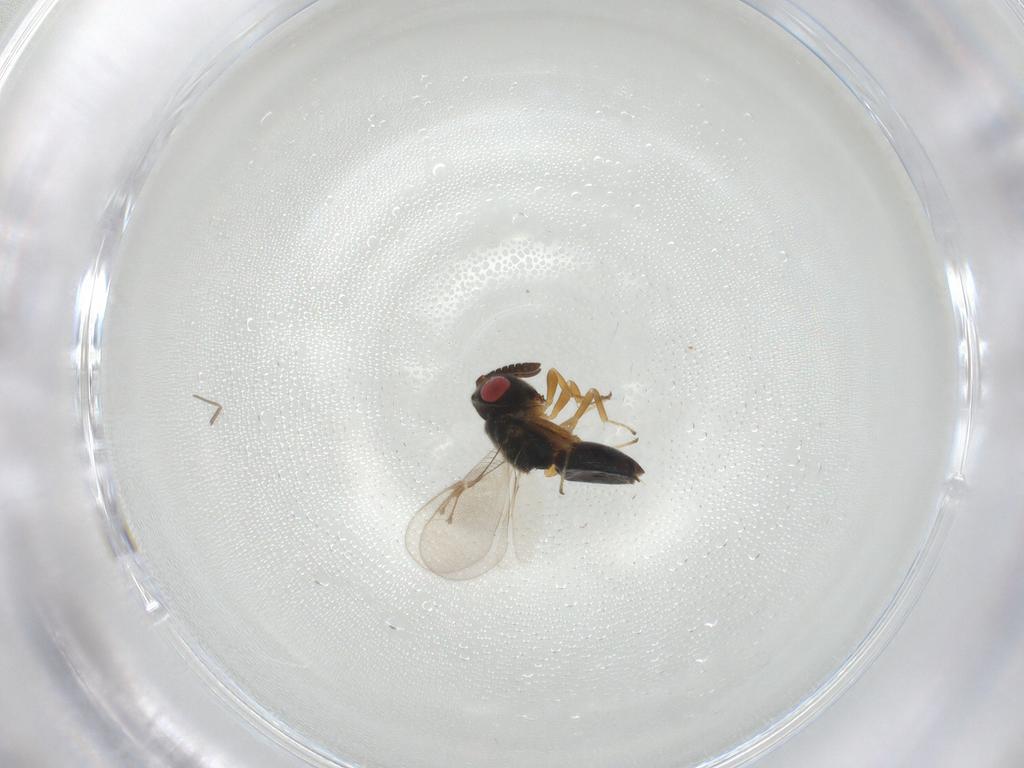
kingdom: Animalia
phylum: Arthropoda
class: Insecta
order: Hymenoptera
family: Pteromalidae
